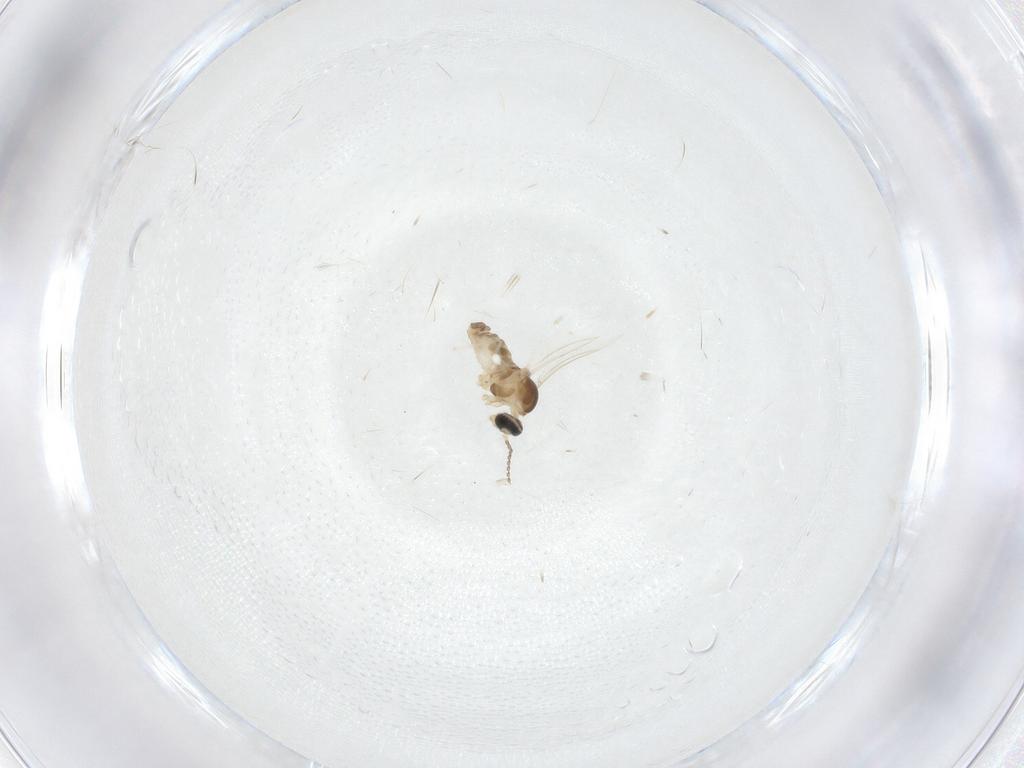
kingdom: Animalia
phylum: Arthropoda
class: Insecta
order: Diptera
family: Cecidomyiidae
